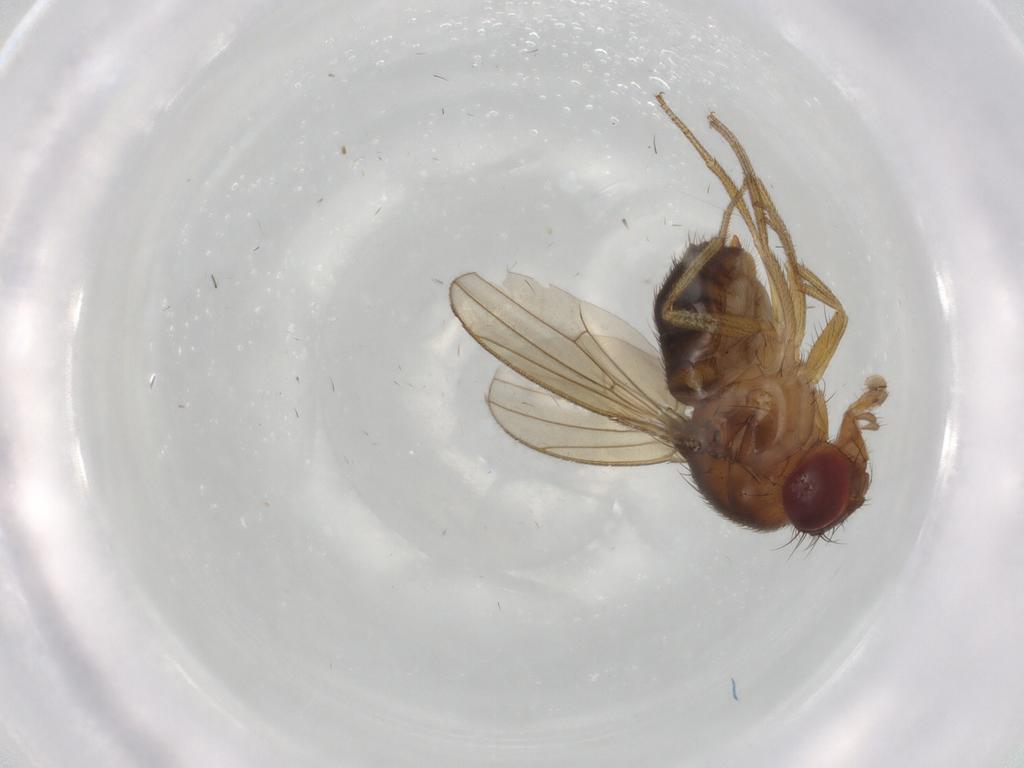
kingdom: Animalia
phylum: Arthropoda
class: Insecta
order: Diptera
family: Drosophilidae
